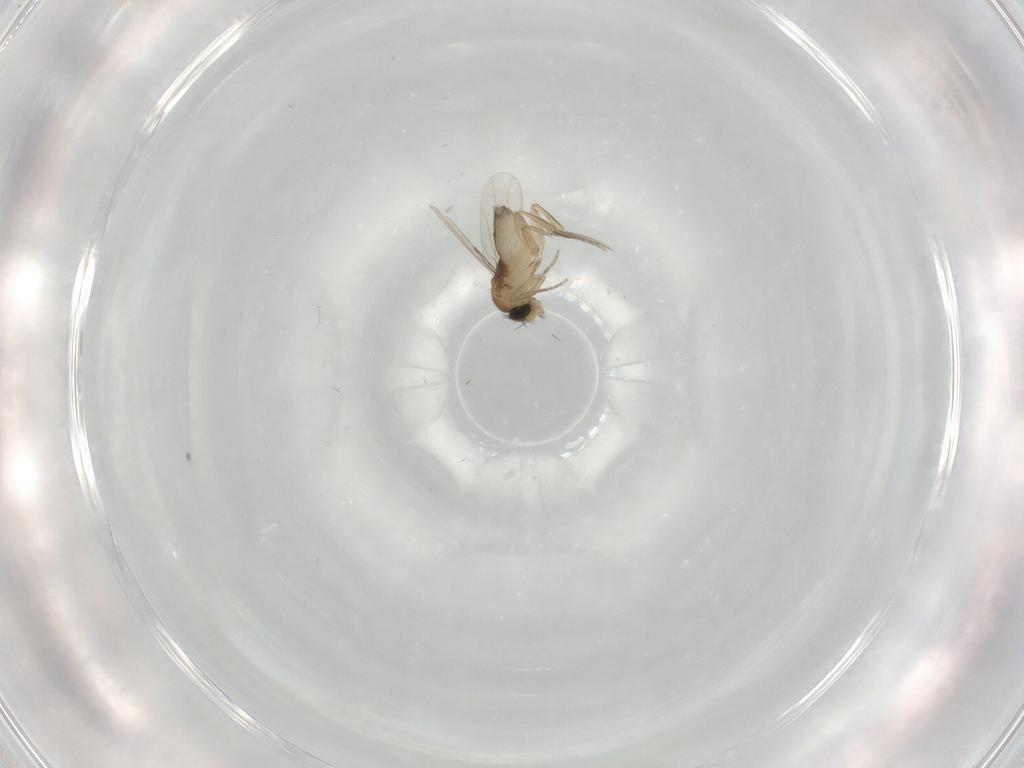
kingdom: Animalia
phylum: Arthropoda
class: Insecta
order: Diptera
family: Phoridae
